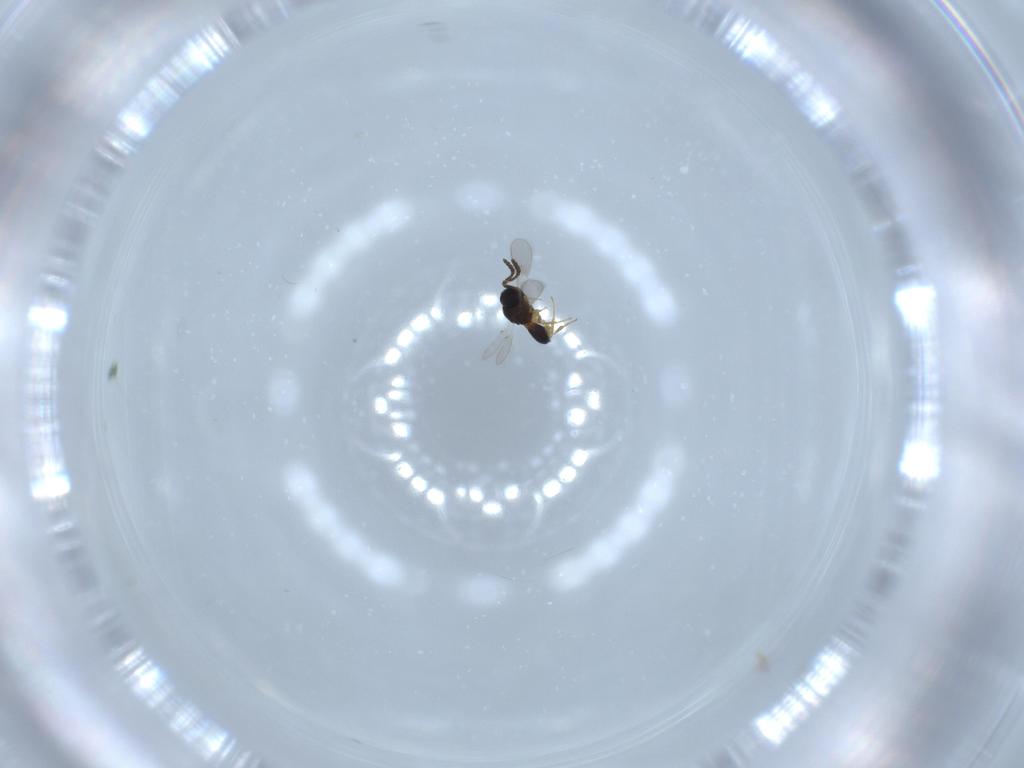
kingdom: Animalia
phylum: Arthropoda
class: Insecta
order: Hymenoptera
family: Scelionidae
